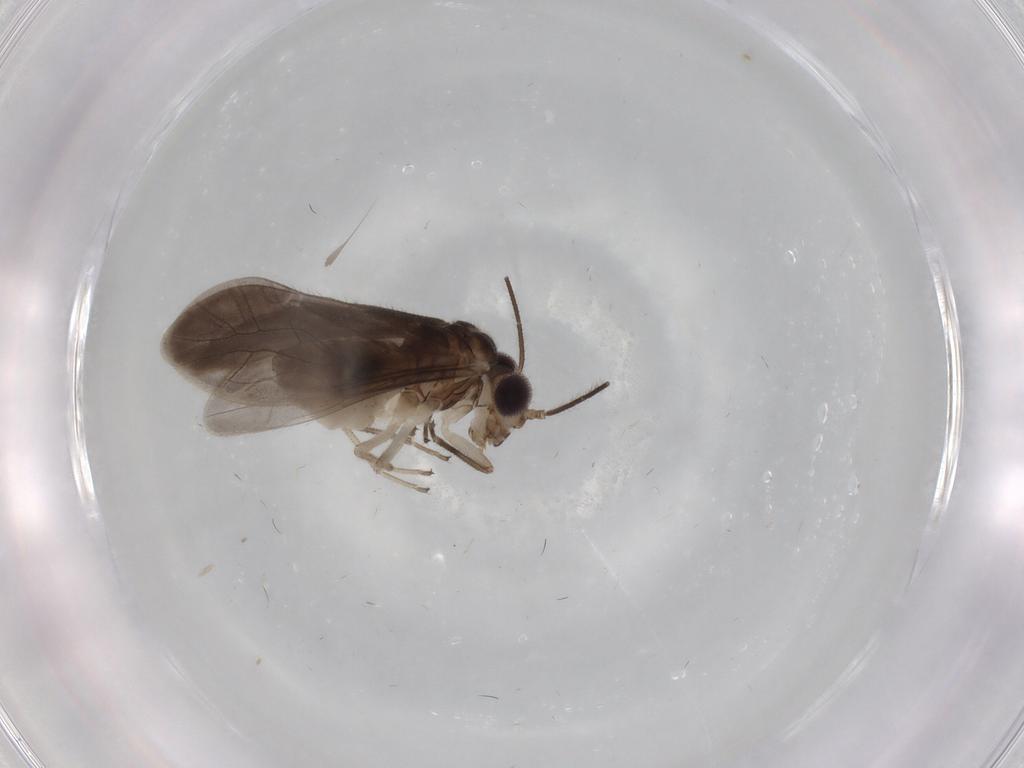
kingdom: Animalia
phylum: Arthropoda
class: Insecta
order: Psocodea
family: Caeciliusidae
